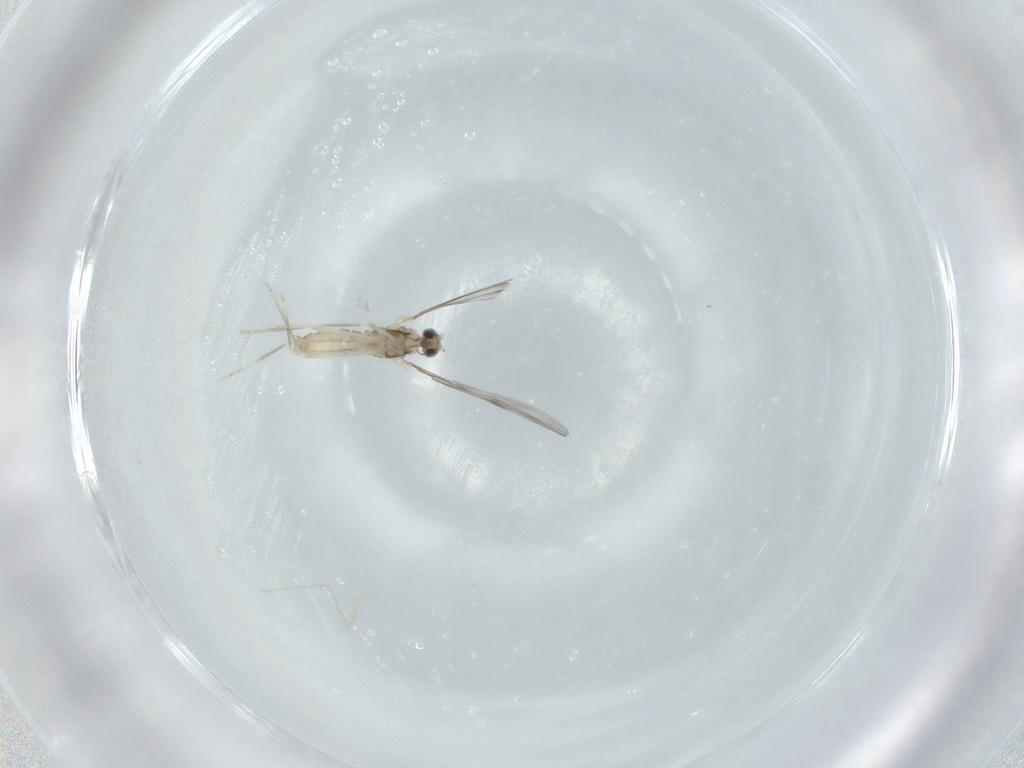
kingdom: Animalia
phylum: Arthropoda
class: Insecta
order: Diptera
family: Cecidomyiidae
